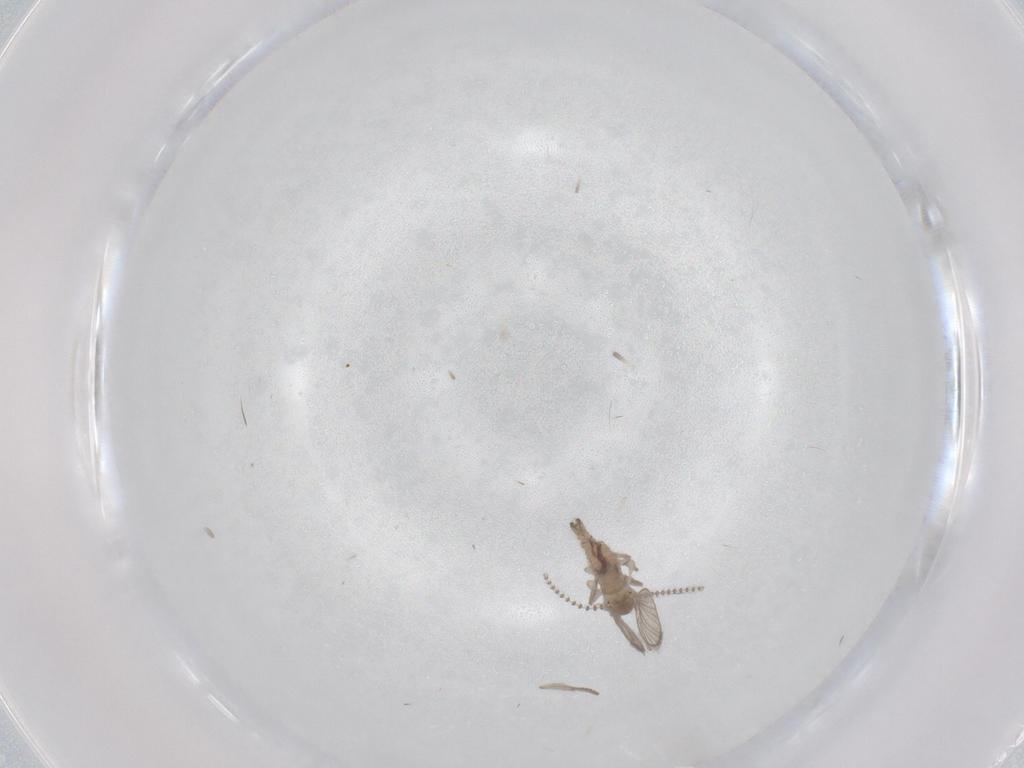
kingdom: Animalia
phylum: Arthropoda
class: Insecta
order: Diptera
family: Psychodidae
